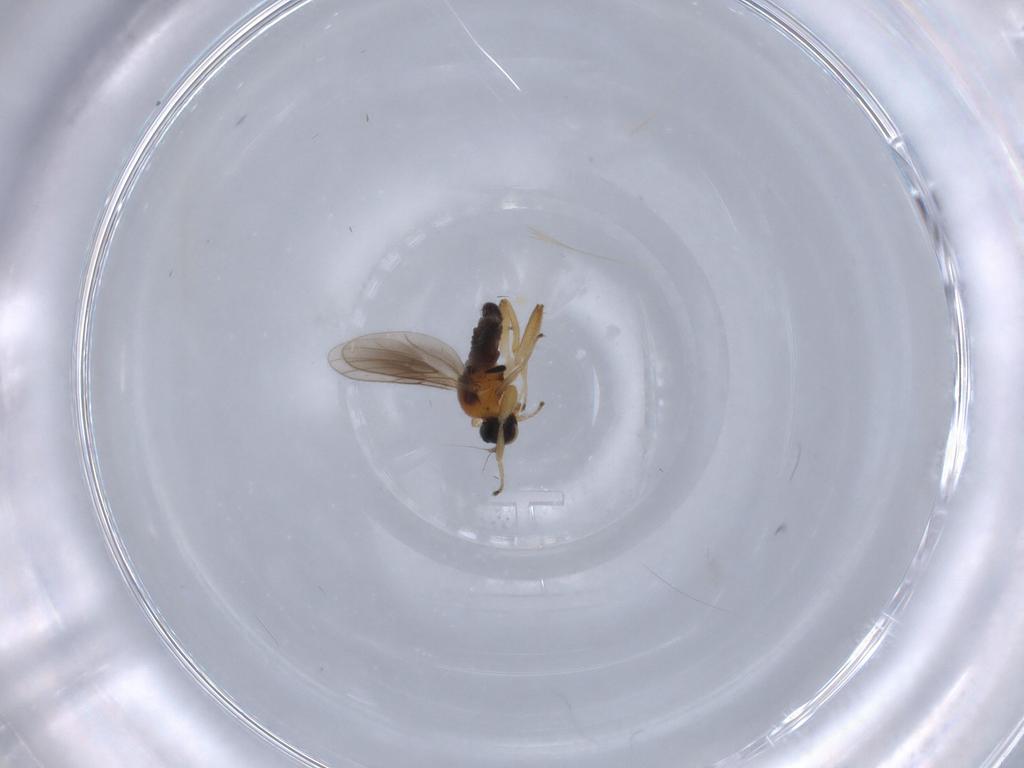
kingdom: Animalia
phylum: Arthropoda
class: Insecta
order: Diptera
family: Hybotidae
